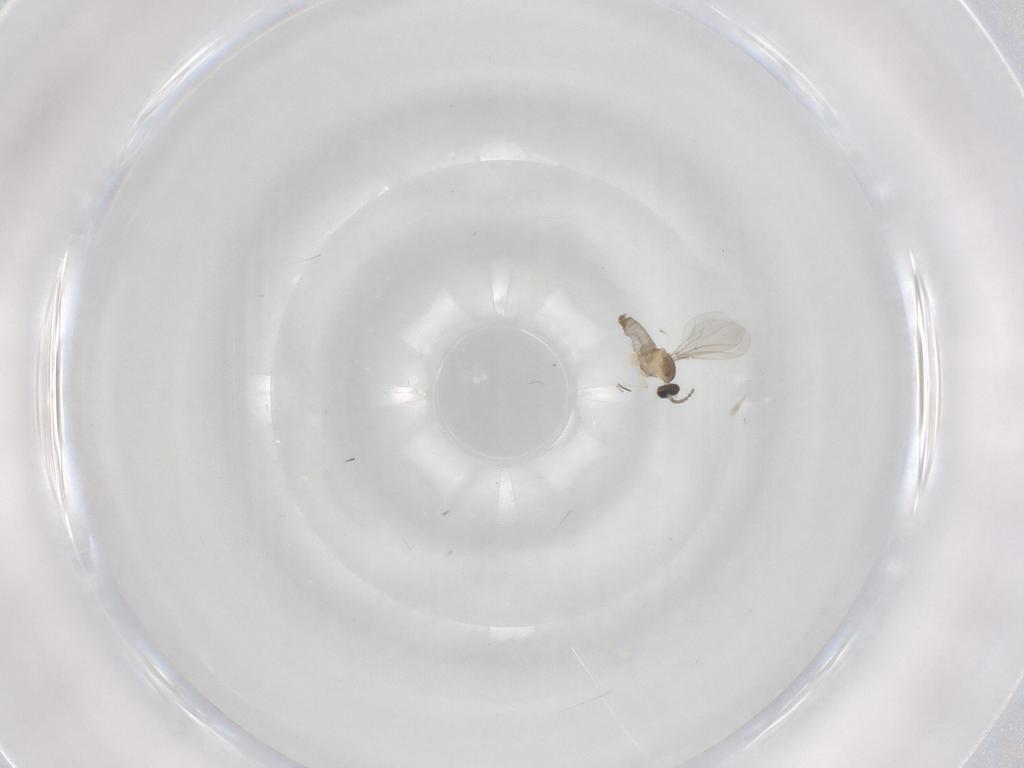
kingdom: Animalia
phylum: Arthropoda
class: Insecta
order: Diptera
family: Cecidomyiidae
